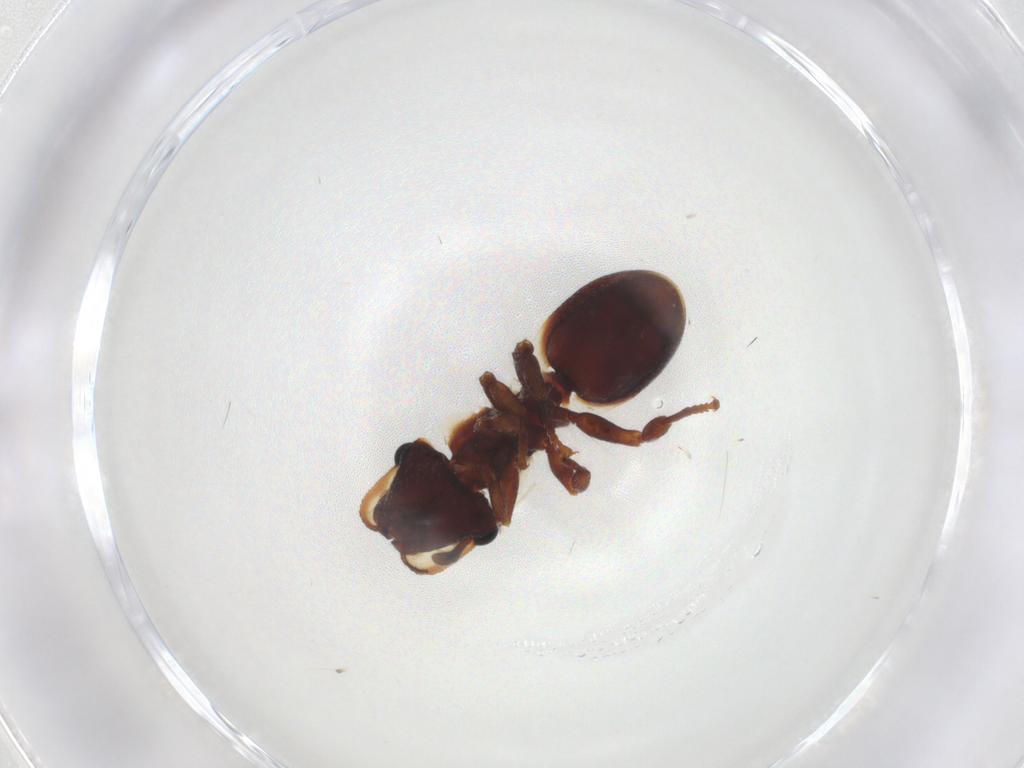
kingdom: Animalia
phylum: Arthropoda
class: Insecta
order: Hymenoptera
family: Formicidae
